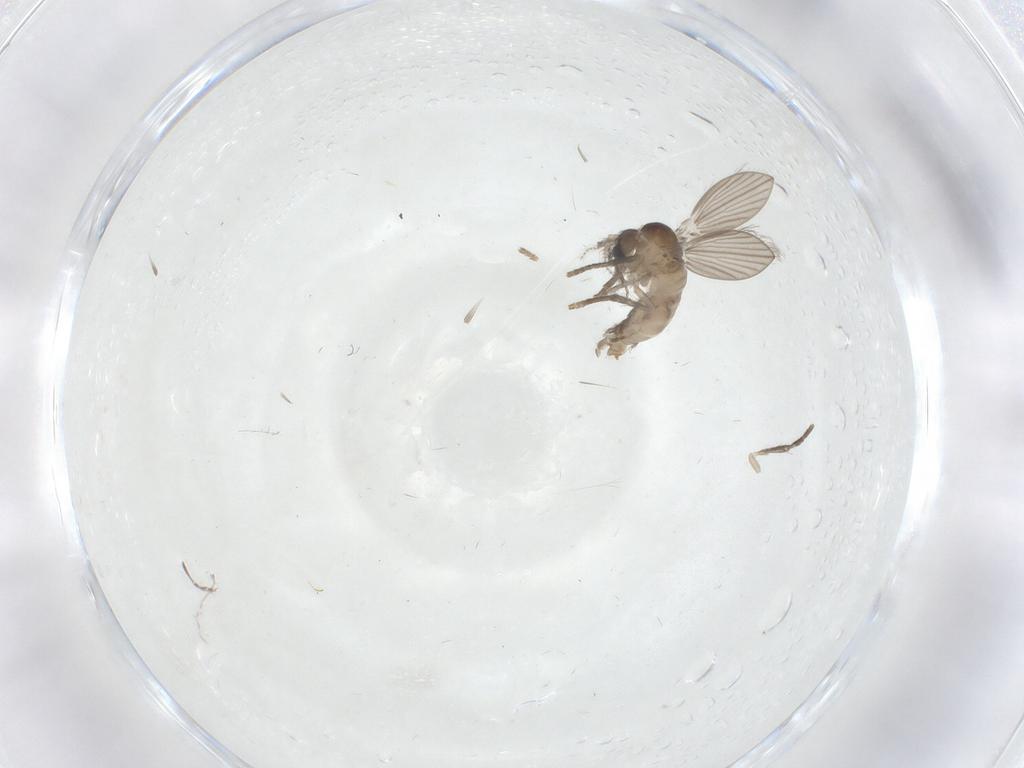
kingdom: Animalia
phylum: Arthropoda
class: Insecta
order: Diptera
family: Psychodidae
